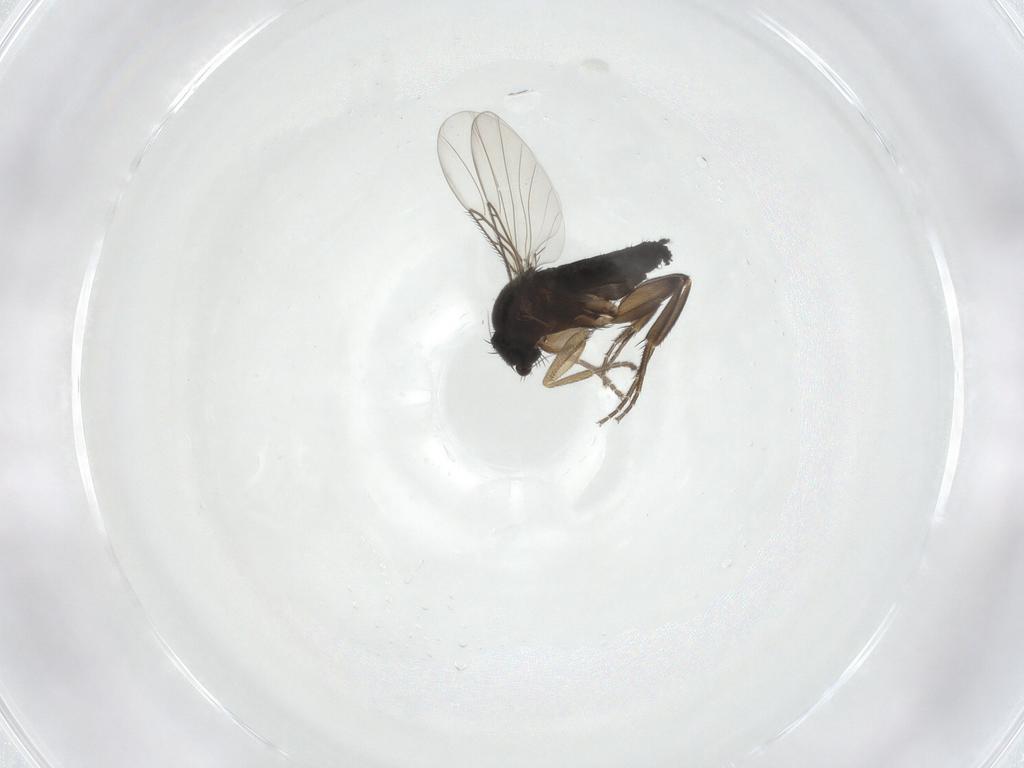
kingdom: Animalia
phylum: Arthropoda
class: Insecta
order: Diptera
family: Phoridae
